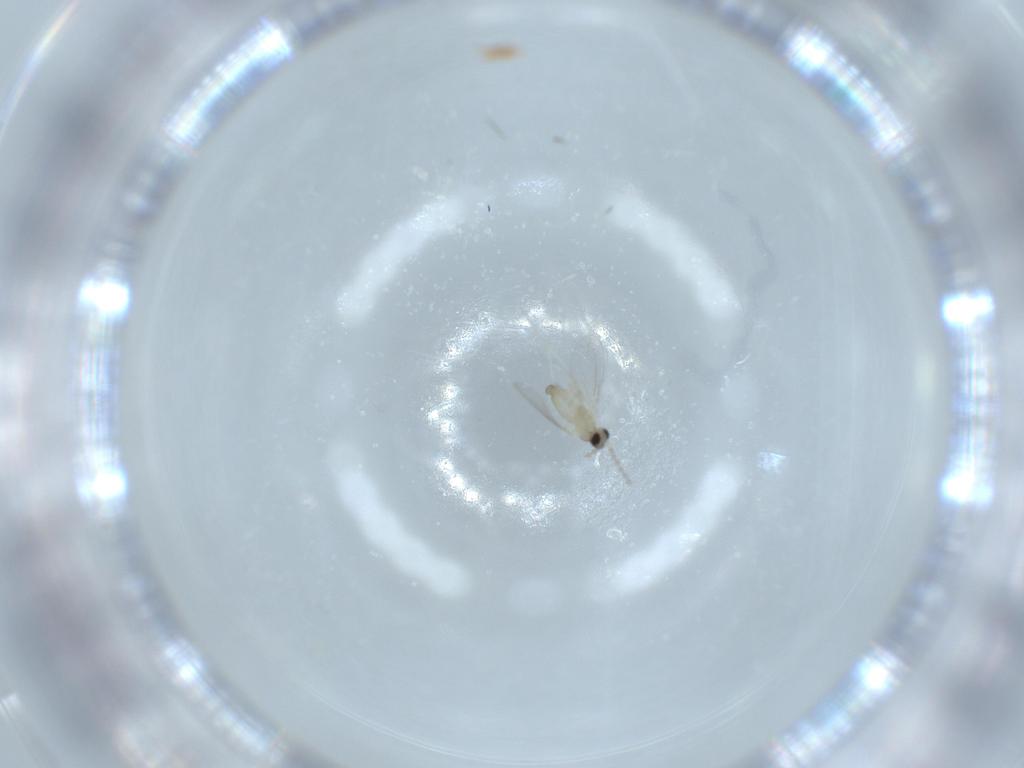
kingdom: Animalia
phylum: Arthropoda
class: Insecta
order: Diptera
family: Cecidomyiidae
